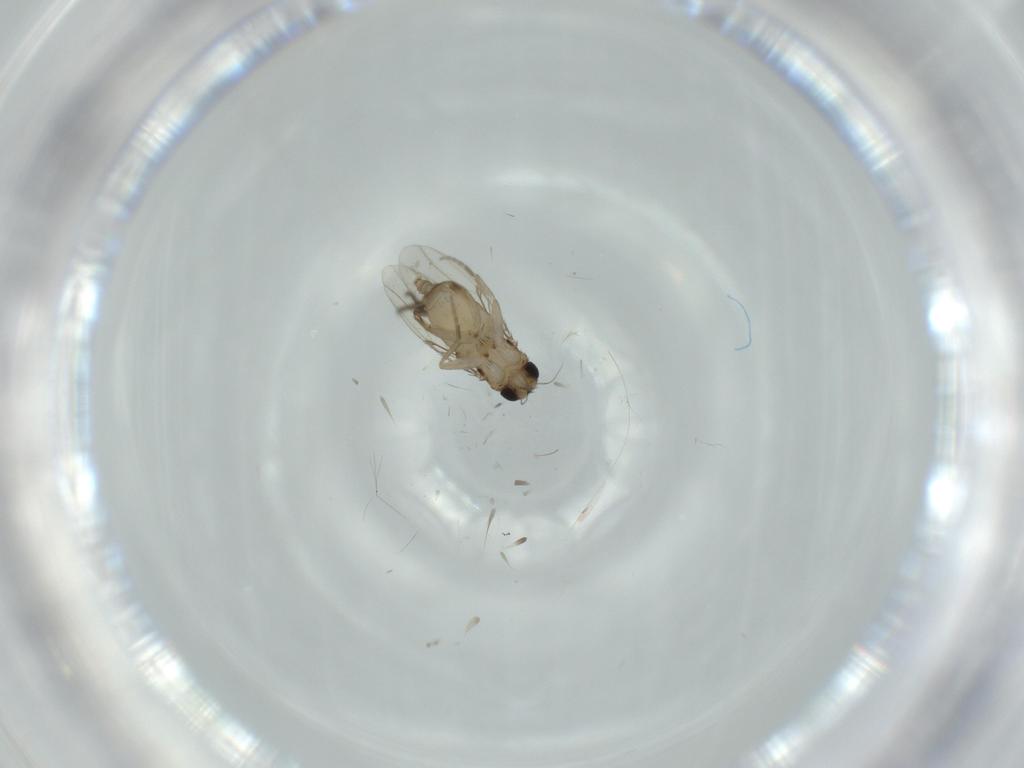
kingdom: Animalia
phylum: Arthropoda
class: Insecta
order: Diptera
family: Phoridae
